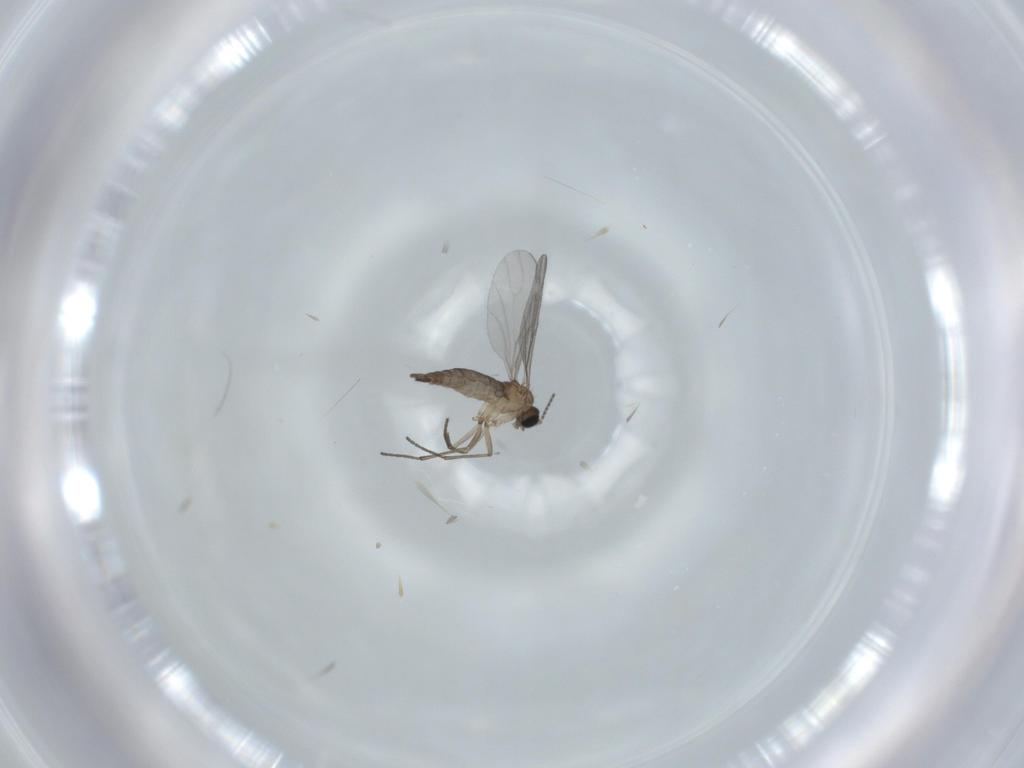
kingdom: Animalia
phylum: Arthropoda
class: Insecta
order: Diptera
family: Sciaridae
